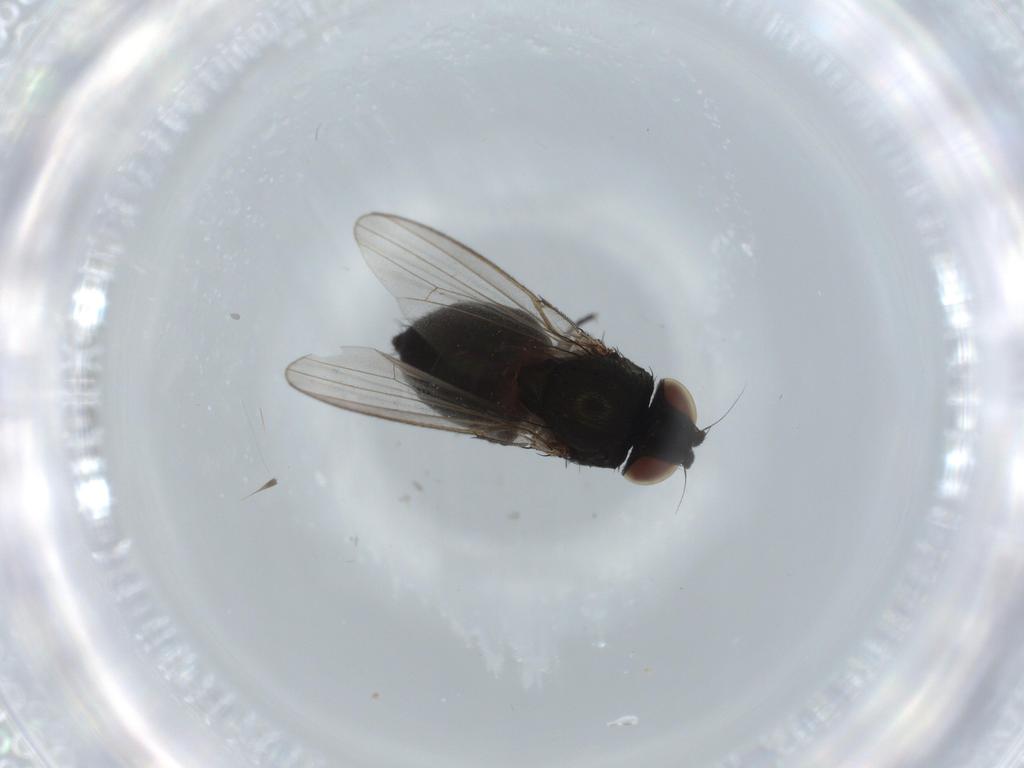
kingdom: Animalia
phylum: Arthropoda
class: Insecta
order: Diptera
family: Milichiidae
